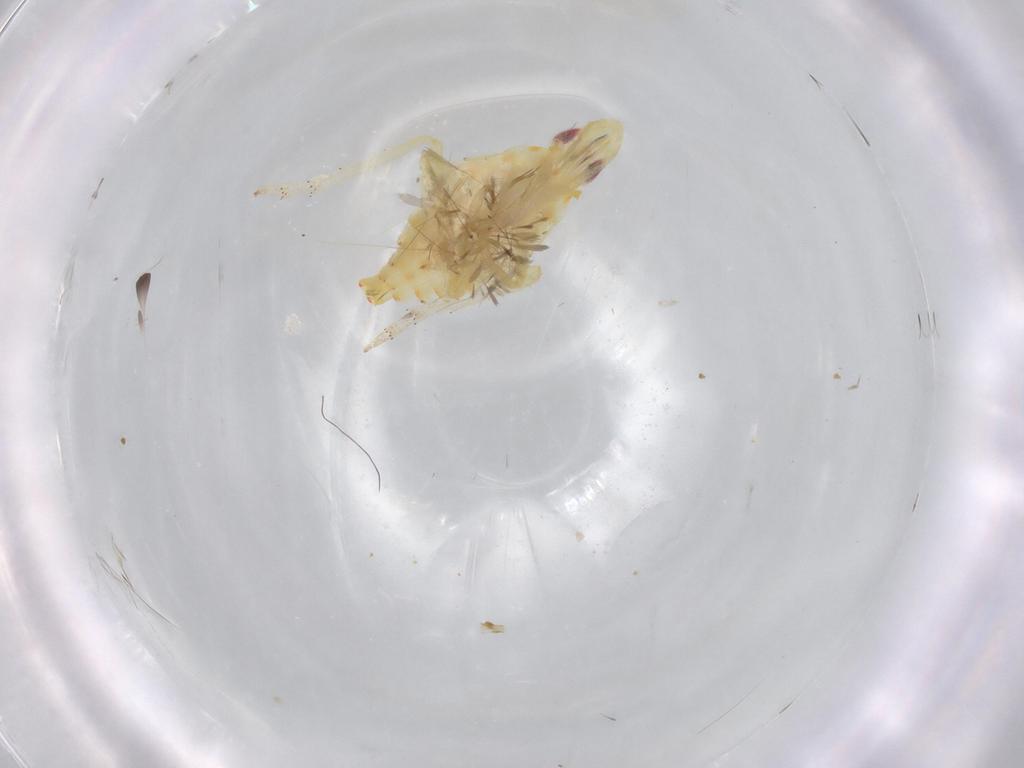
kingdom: Animalia
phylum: Arthropoda
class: Insecta
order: Hemiptera
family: Tropiduchidae
